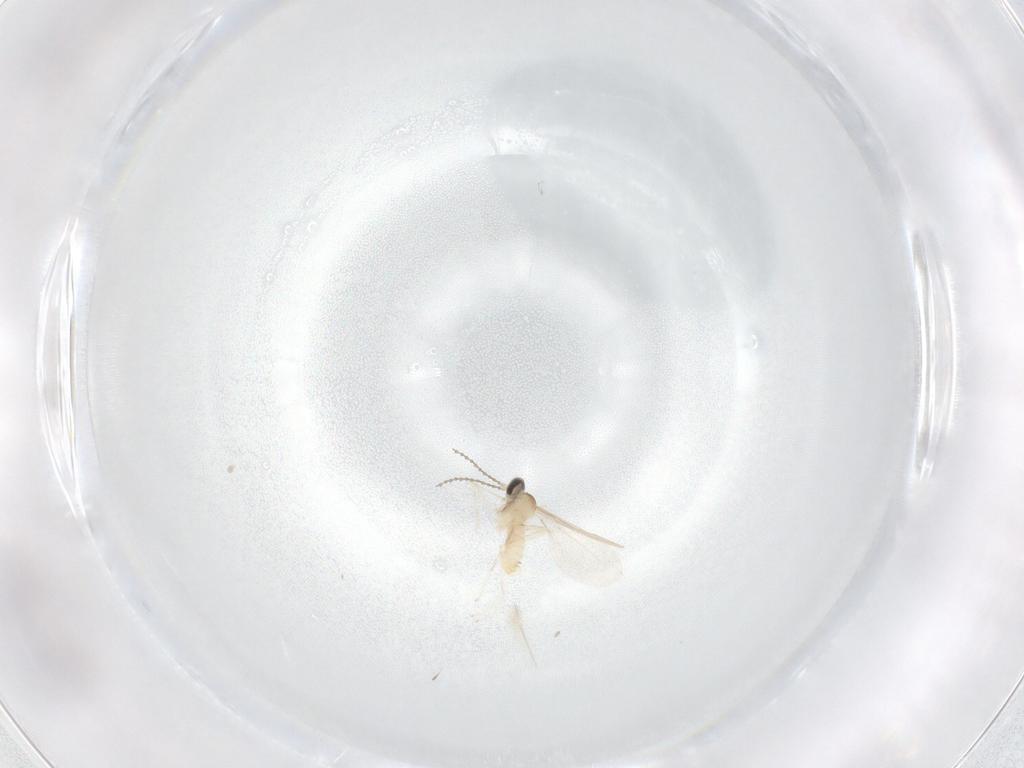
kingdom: Animalia
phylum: Arthropoda
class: Insecta
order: Diptera
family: Cecidomyiidae
